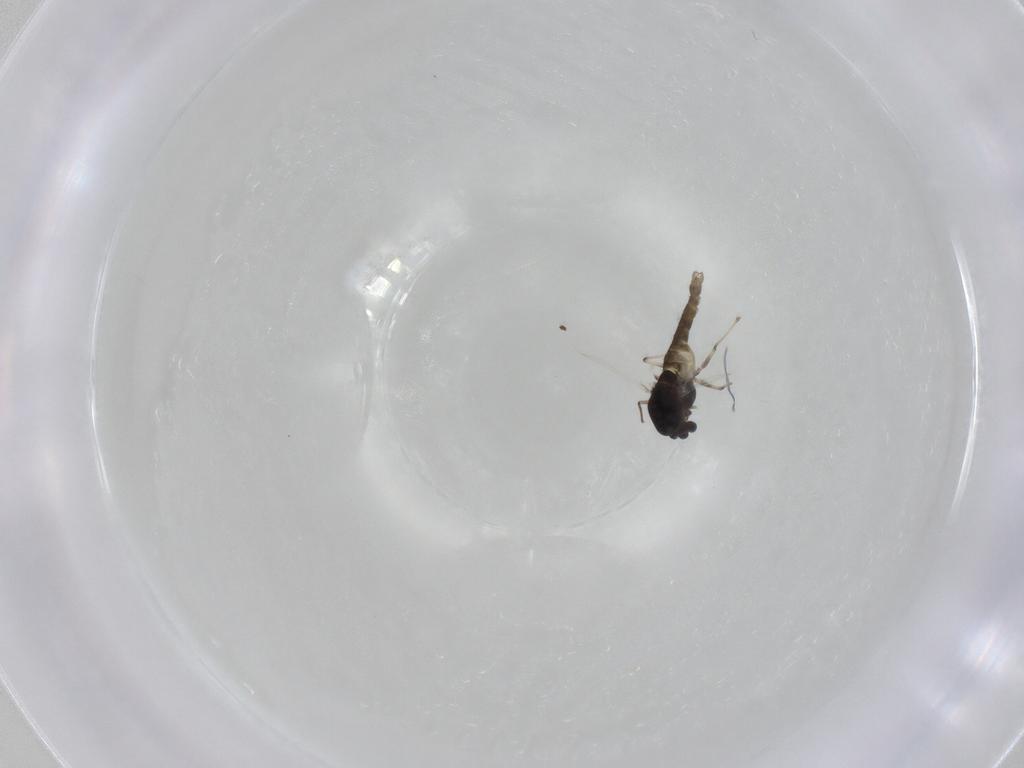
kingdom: Animalia
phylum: Arthropoda
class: Insecta
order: Diptera
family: Chironomidae
